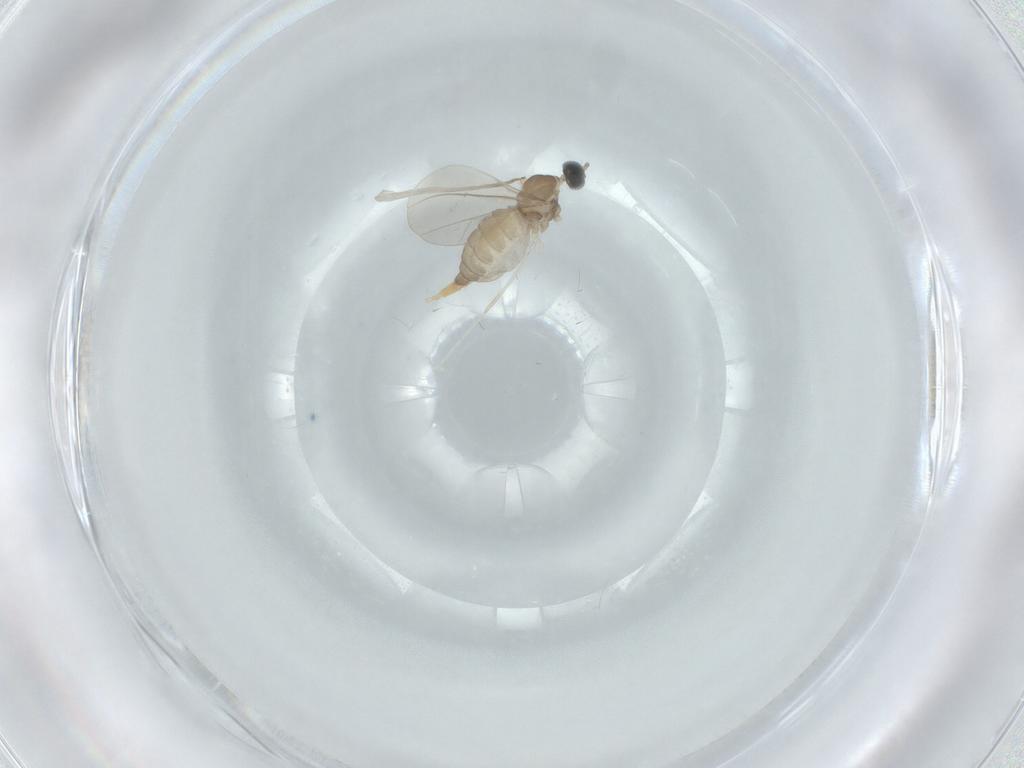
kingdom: Animalia
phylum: Arthropoda
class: Insecta
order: Diptera
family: Cecidomyiidae
